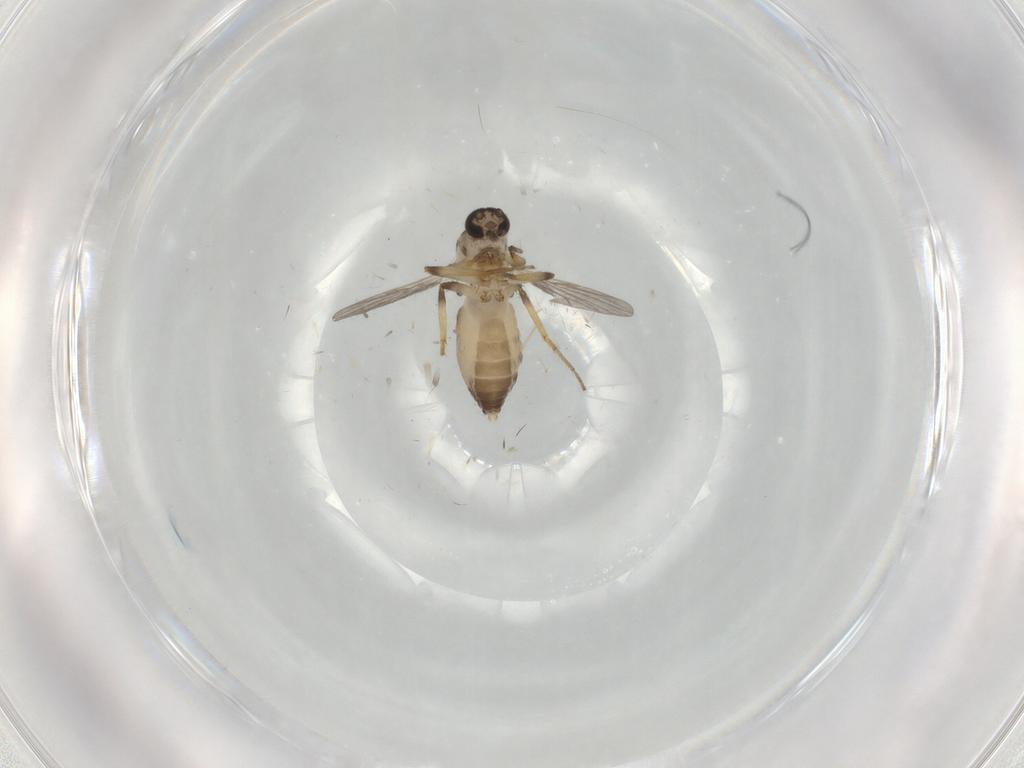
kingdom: Animalia
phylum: Arthropoda
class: Insecta
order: Diptera
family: Ceratopogonidae
